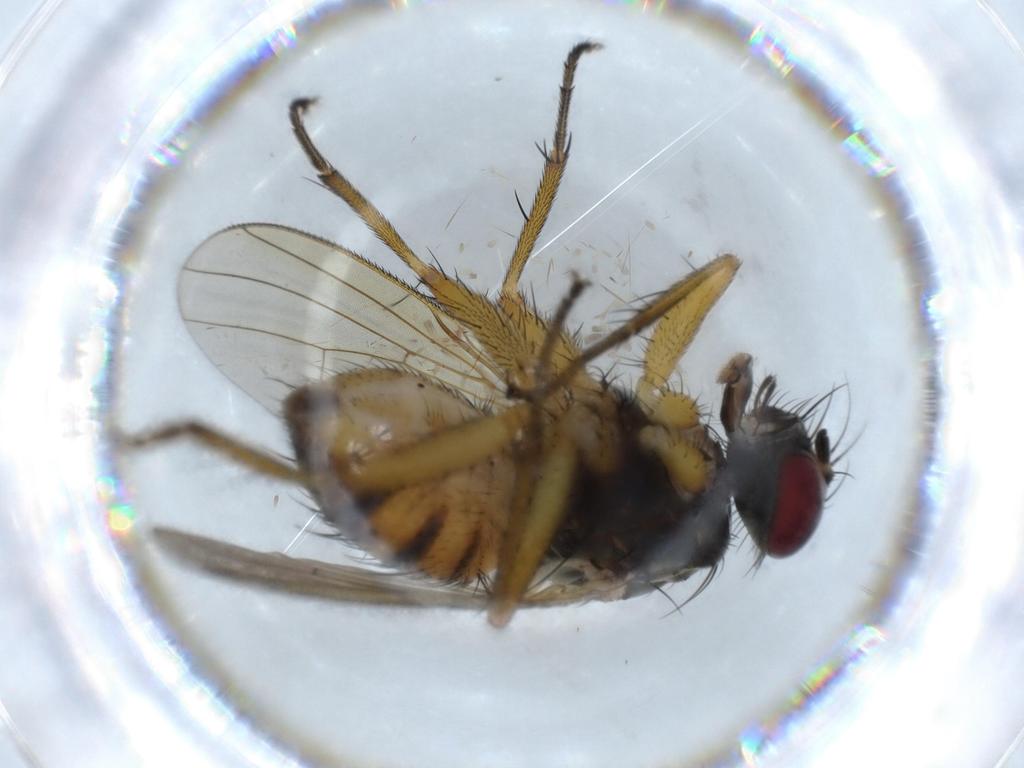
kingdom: Animalia
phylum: Arthropoda
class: Insecta
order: Diptera
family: Muscidae
